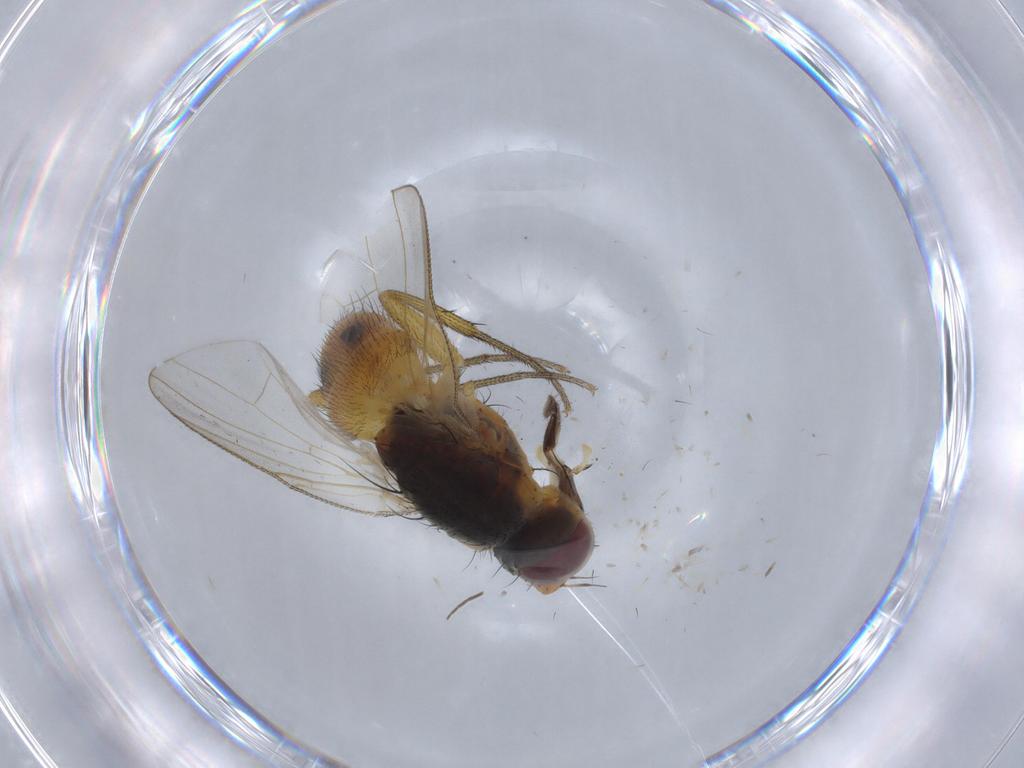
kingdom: Animalia
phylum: Arthropoda
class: Insecta
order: Diptera
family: Muscidae
